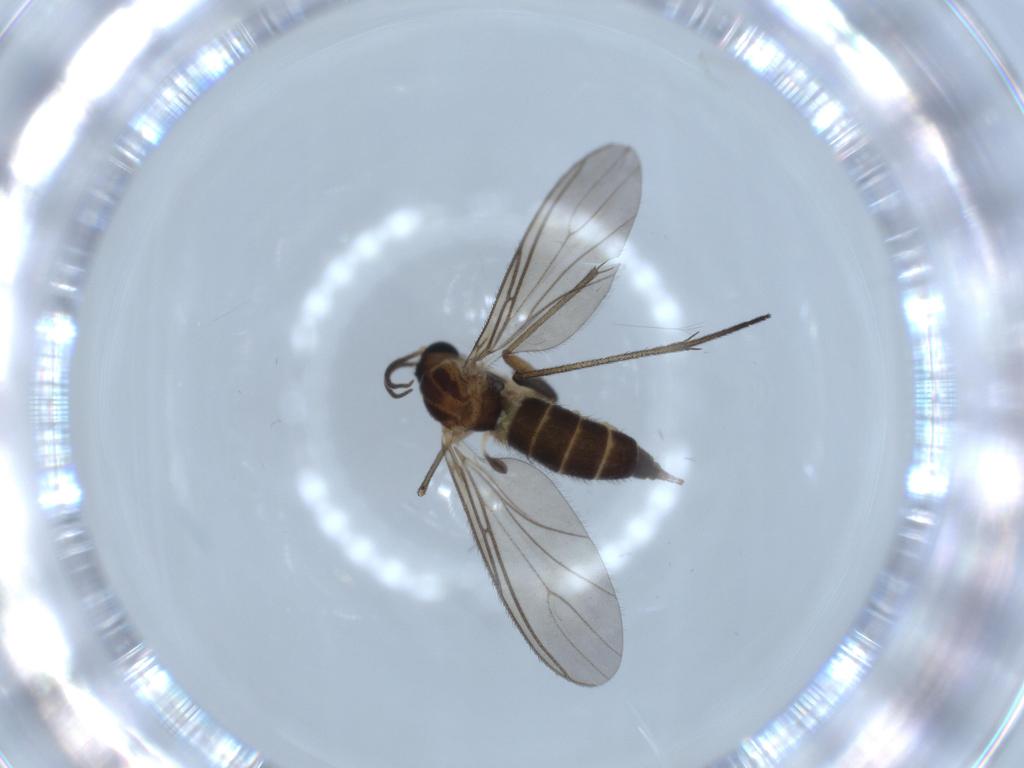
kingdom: Animalia
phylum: Arthropoda
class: Insecta
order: Diptera
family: Sciaridae
